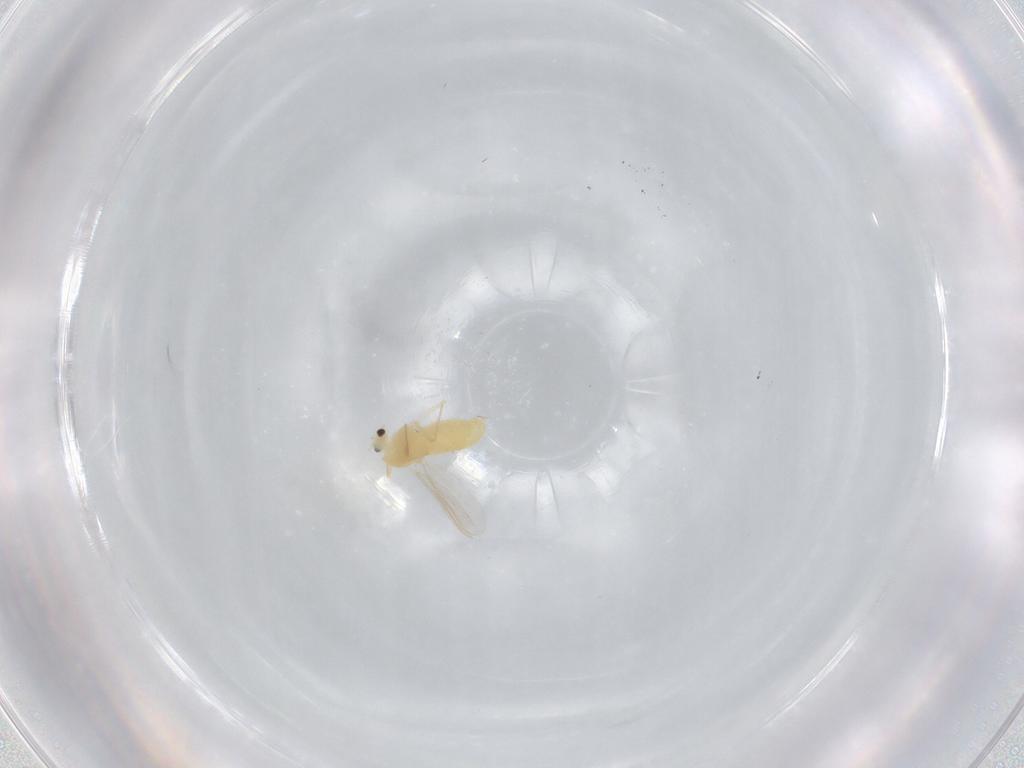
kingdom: Animalia
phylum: Arthropoda
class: Insecta
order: Diptera
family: Chironomidae
